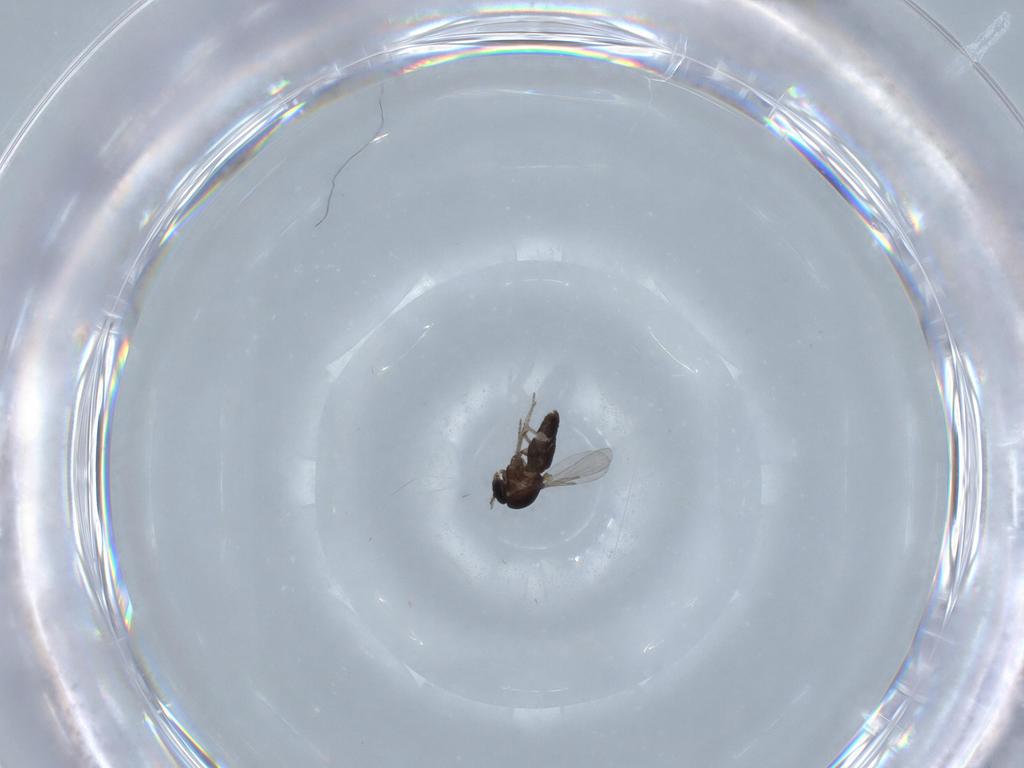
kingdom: Animalia
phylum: Arthropoda
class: Insecta
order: Diptera
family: Ceratopogonidae
